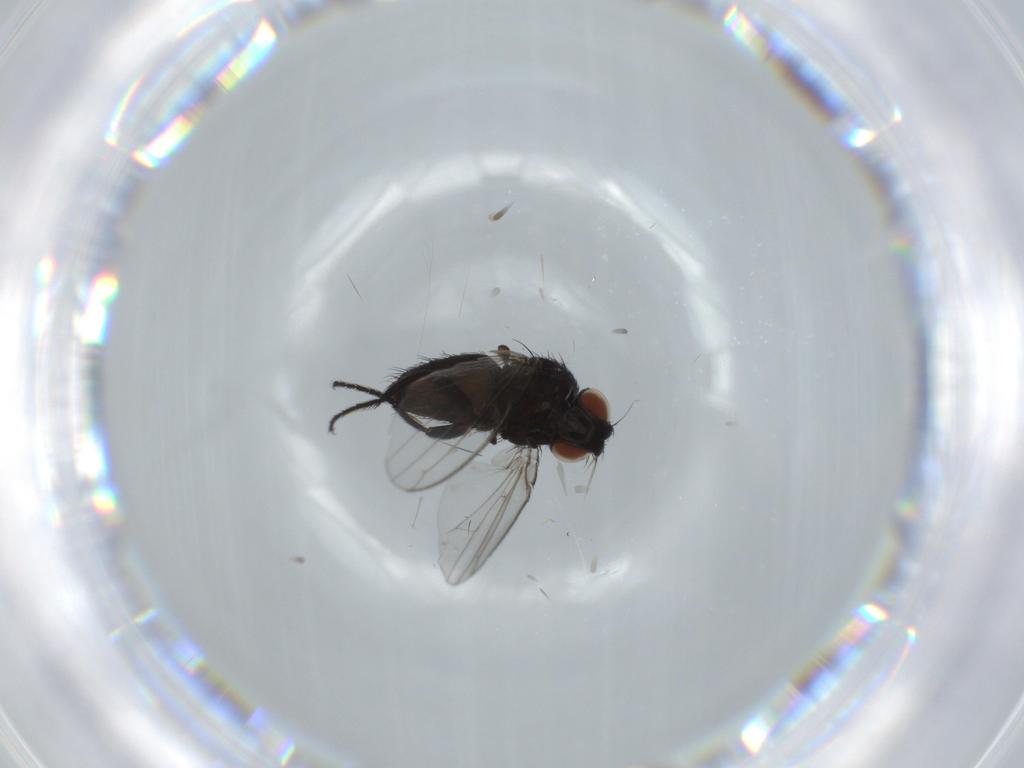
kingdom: Animalia
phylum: Arthropoda
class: Insecta
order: Diptera
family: Milichiidae
